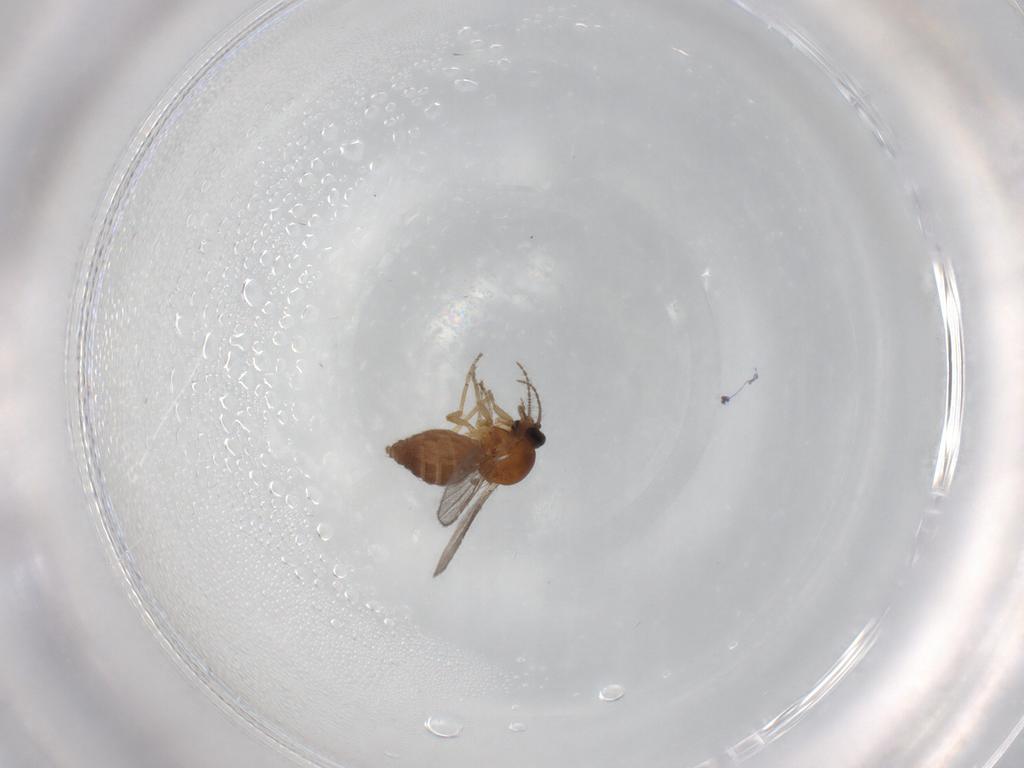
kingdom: Animalia
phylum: Arthropoda
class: Insecta
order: Diptera
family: Ceratopogonidae
